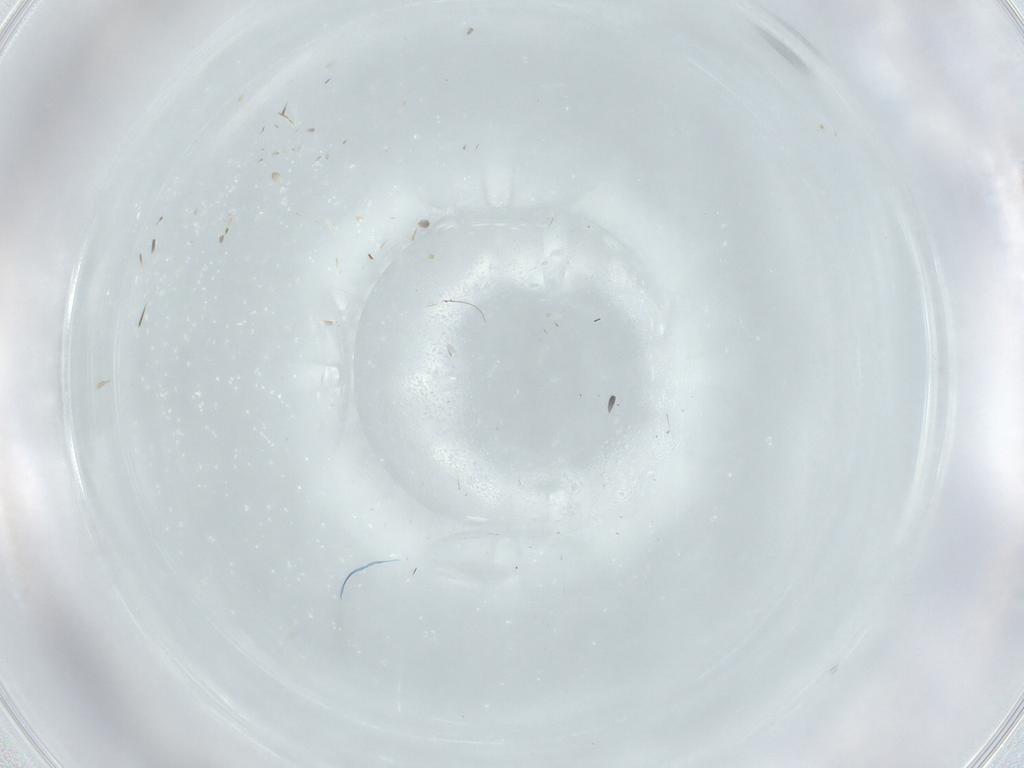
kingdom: Animalia
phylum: Arthropoda
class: Insecta
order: Diptera
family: Cecidomyiidae
